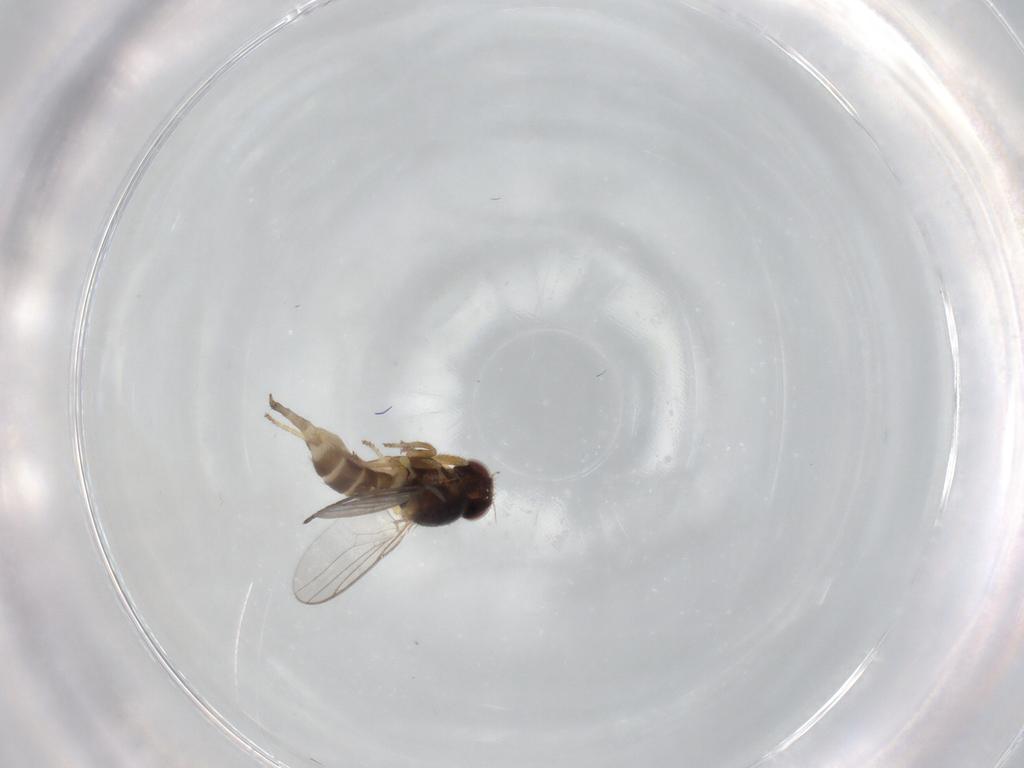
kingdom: Animalia
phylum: Arthropoda
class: Insecta
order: Diptera
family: Chloropidae
